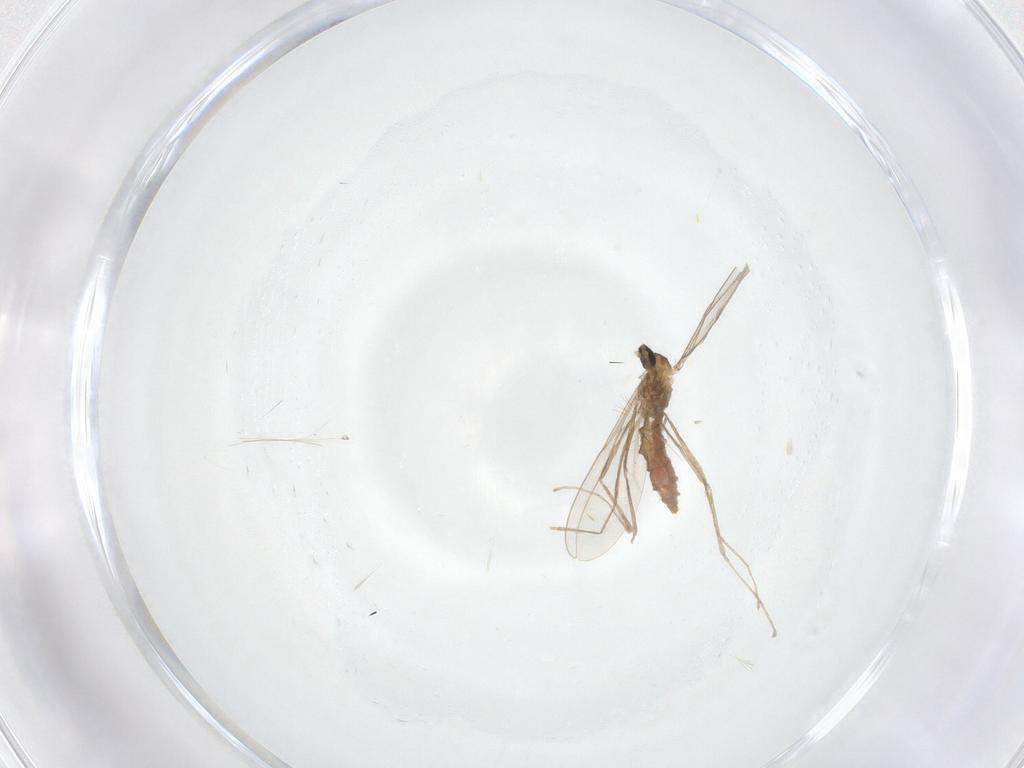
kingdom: Animalia
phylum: Arthropoda
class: Insecta
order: Diptera
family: Cecidomyiidae
